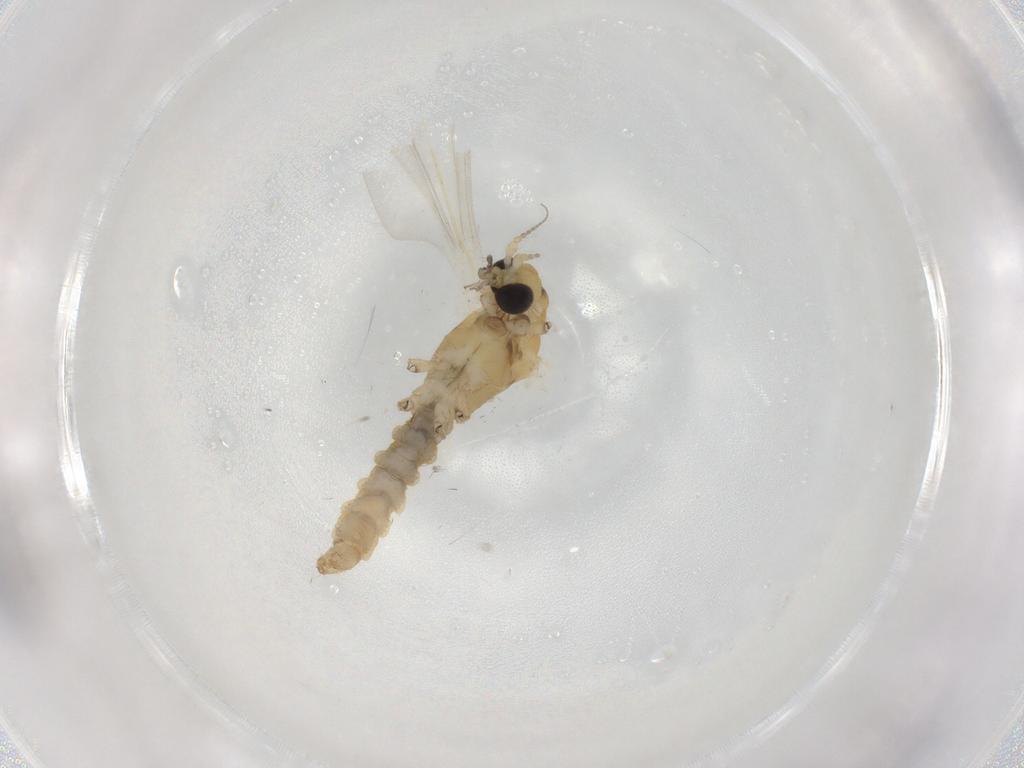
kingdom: Animalia
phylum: Arthropoda
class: Insecta
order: Diptera
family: Limoniidae
